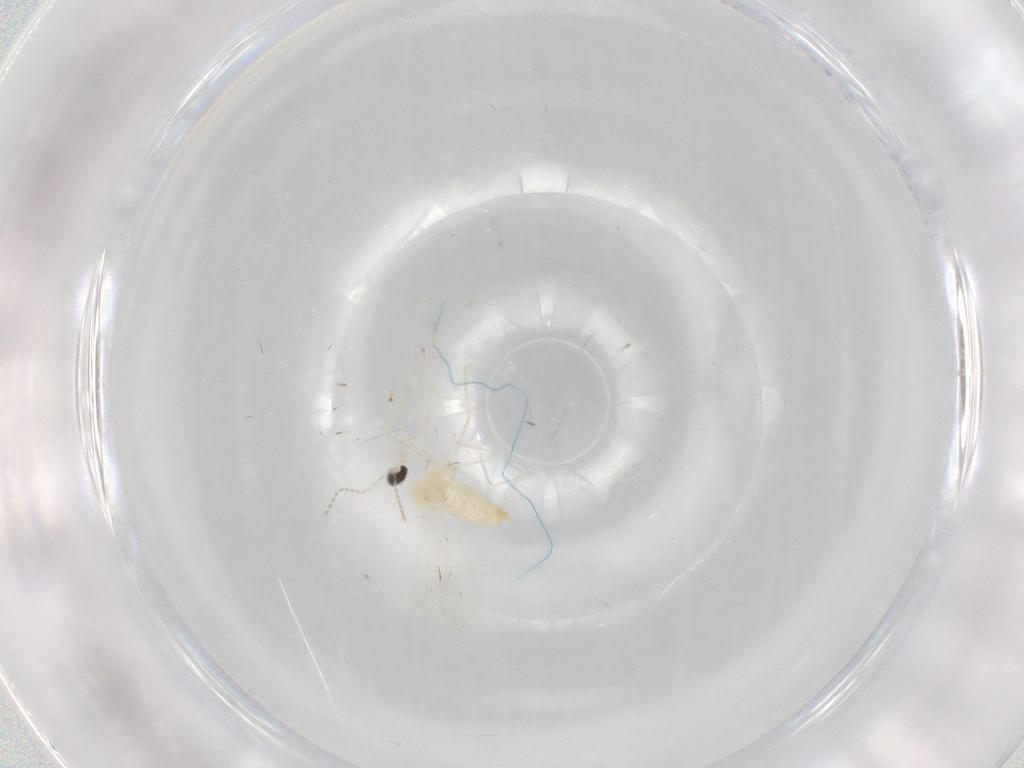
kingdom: Animalia
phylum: Arthropoda
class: Insecta
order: Diptera
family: Cecidomyiidae
